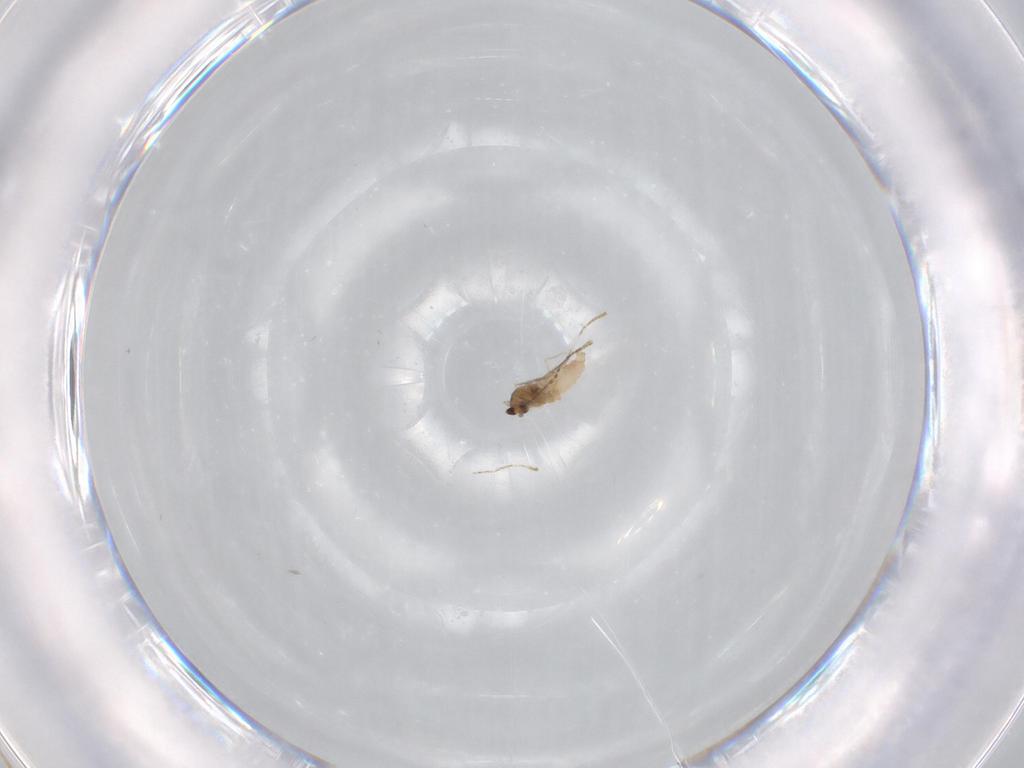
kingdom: Animalia
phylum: Arthropoda
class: Insecta
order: Diptera
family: Cecidomyiidae
